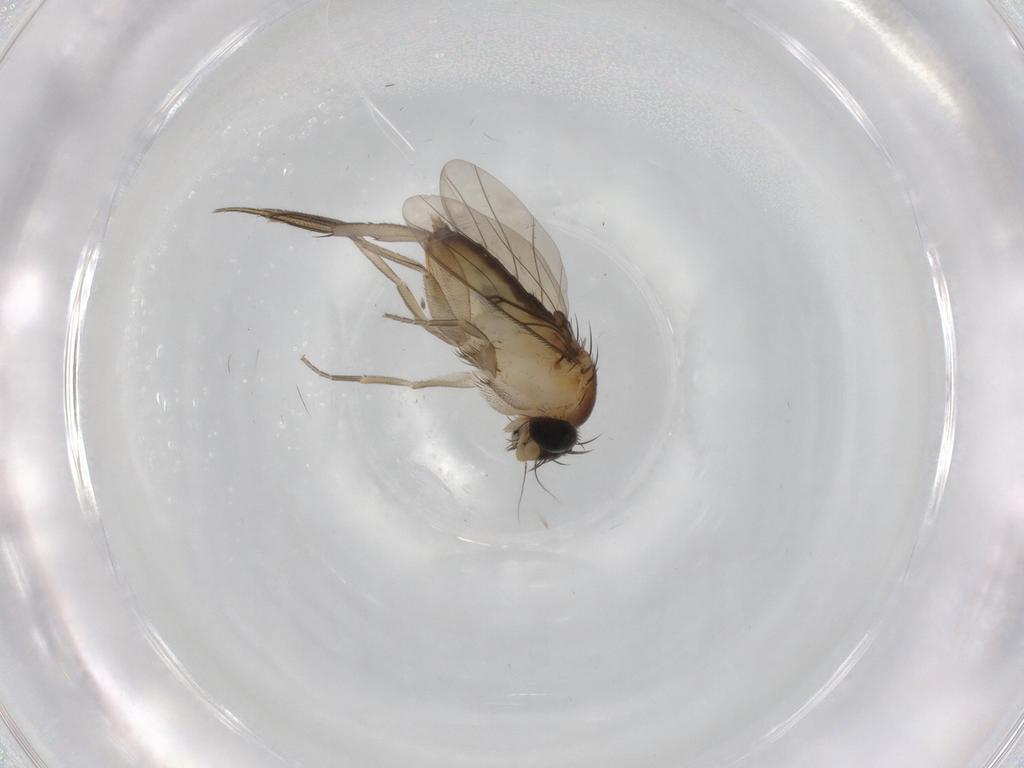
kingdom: Animalia
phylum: Arthropoda
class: Insecta
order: Diptera
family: Phoridae
